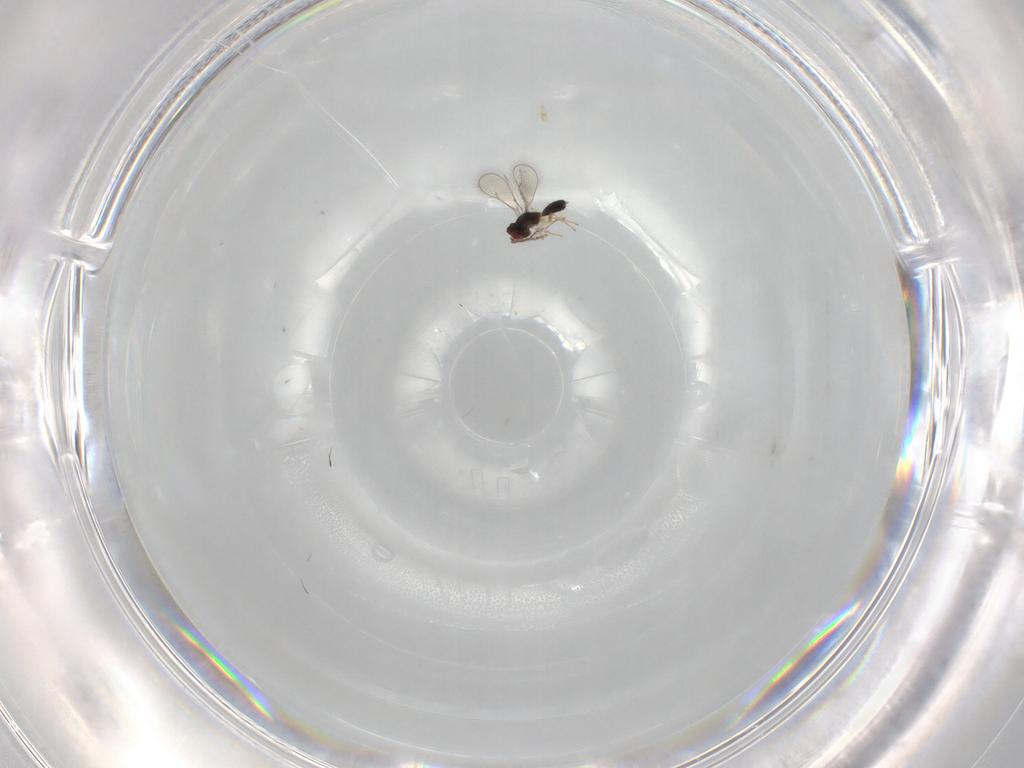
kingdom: Animalia
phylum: Arthropoda
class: Insecta
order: Hymenoptera
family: Eulophidae
